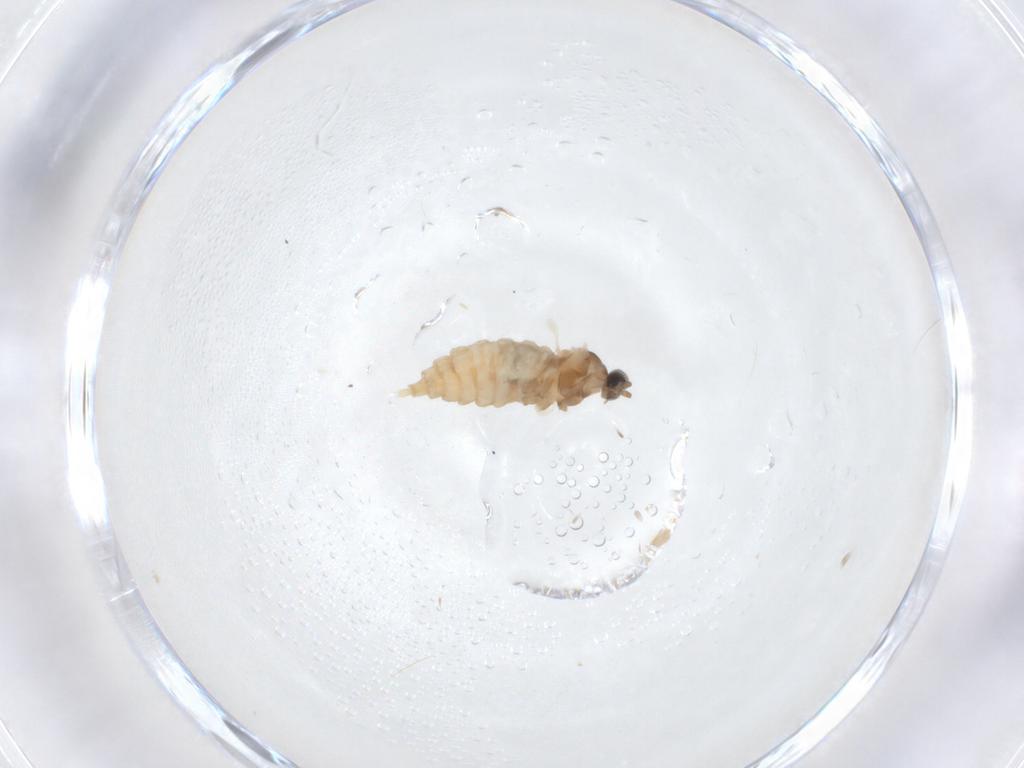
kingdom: Animalia
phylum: Arthropoda
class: Insecta
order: Diptera
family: Cecidomyiidae
